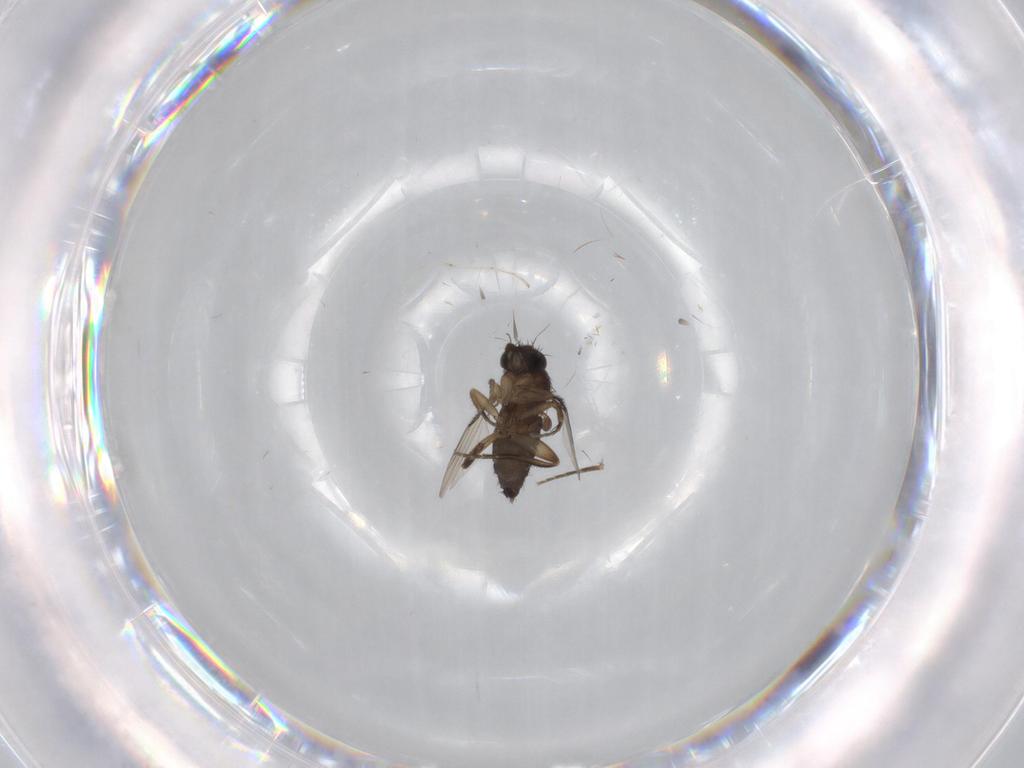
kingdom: Animalia
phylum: Arthropoda
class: Insecta
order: Diptera
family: Phoridae
